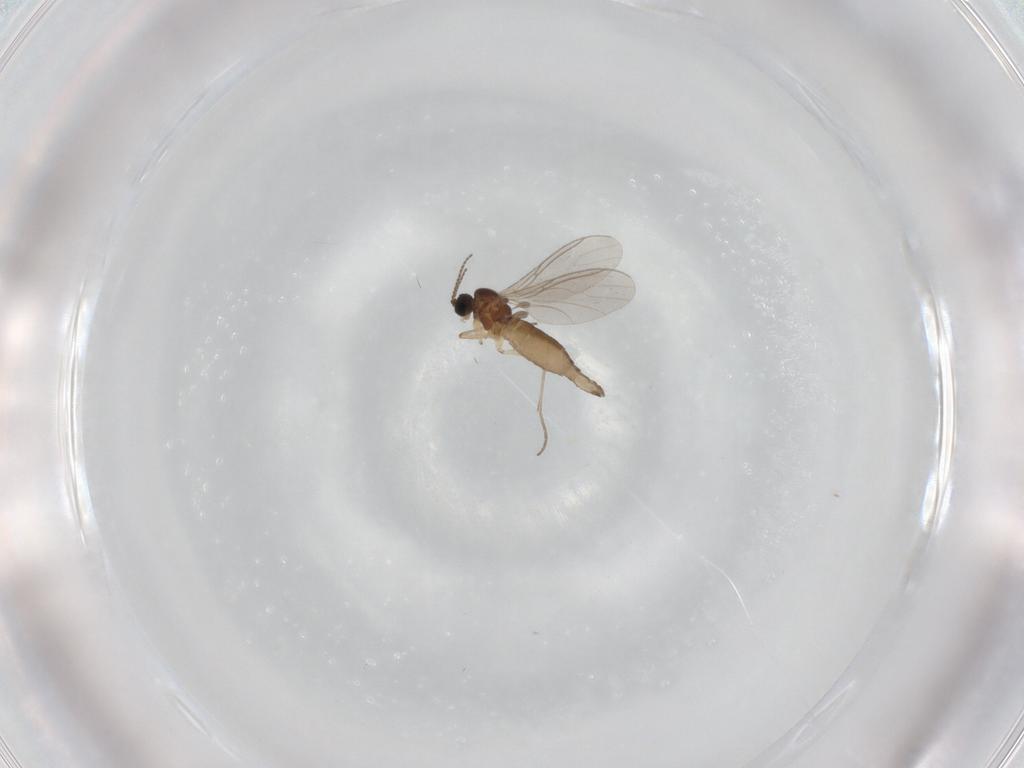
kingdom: Animalia
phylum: Arthropoda
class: Insecta
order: Diptera
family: Sciaridae
